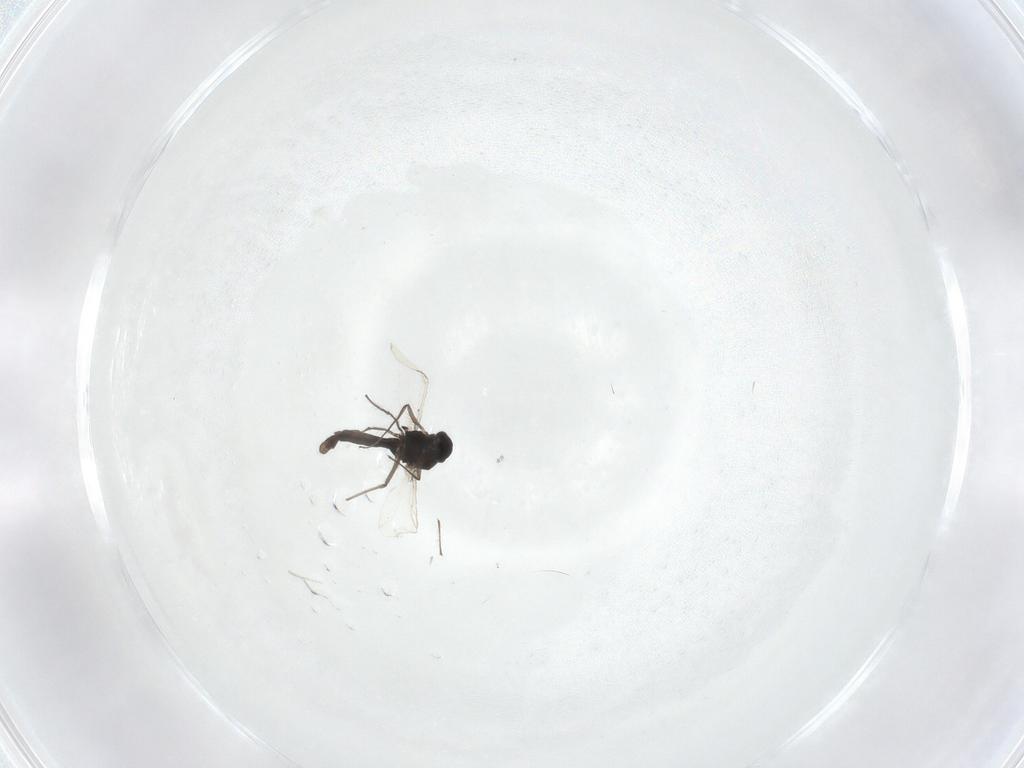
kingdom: Animalia
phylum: Arthropoda
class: Insecta
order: Diptera
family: Chironomidae
